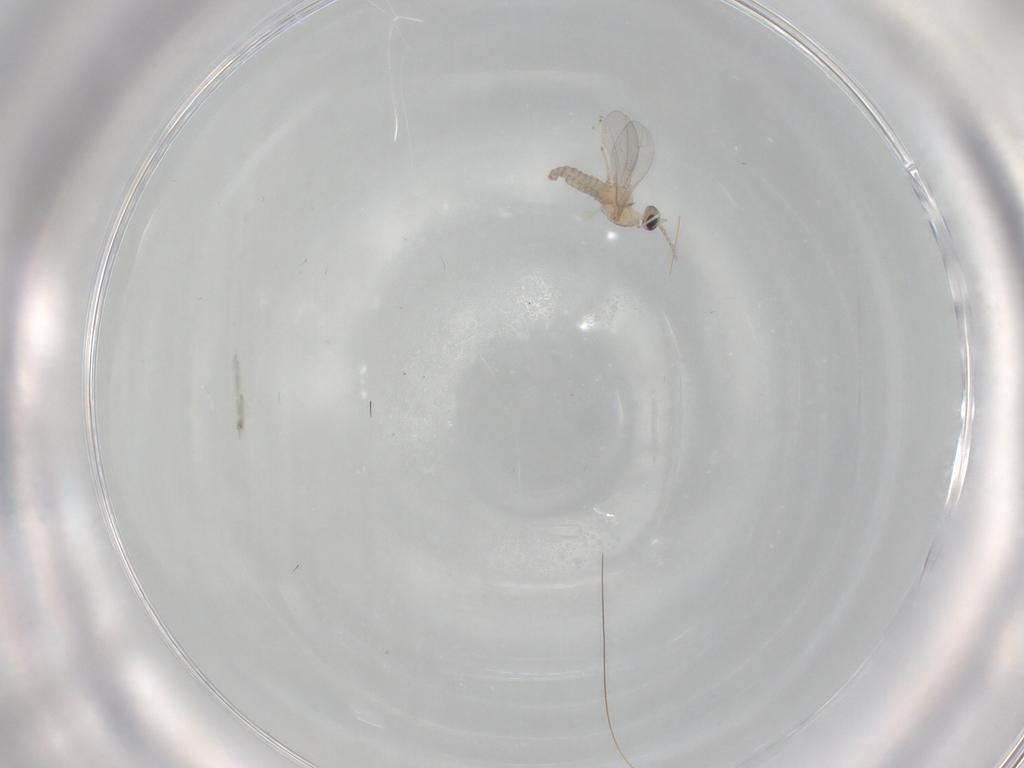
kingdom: Animalia
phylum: Arthropoda
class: Insecta
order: Diptera
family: Cecidomyiidae
